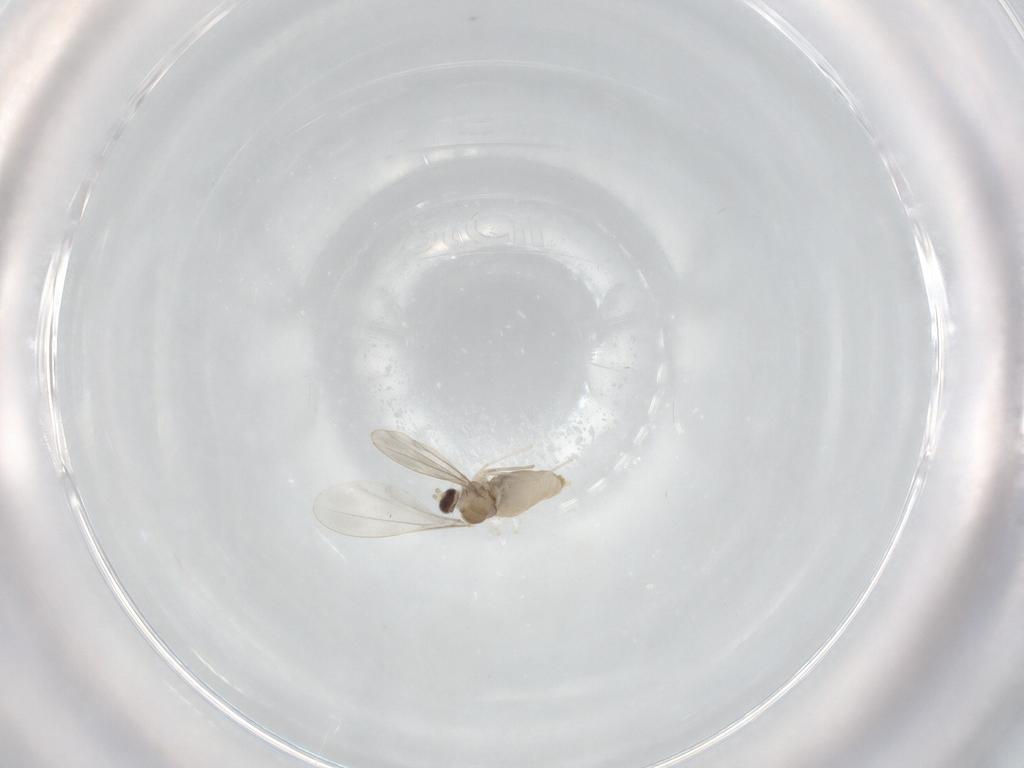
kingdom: Animalia
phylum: Arthropoda
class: Insecta
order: Diptera
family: Cecidomyiidae
